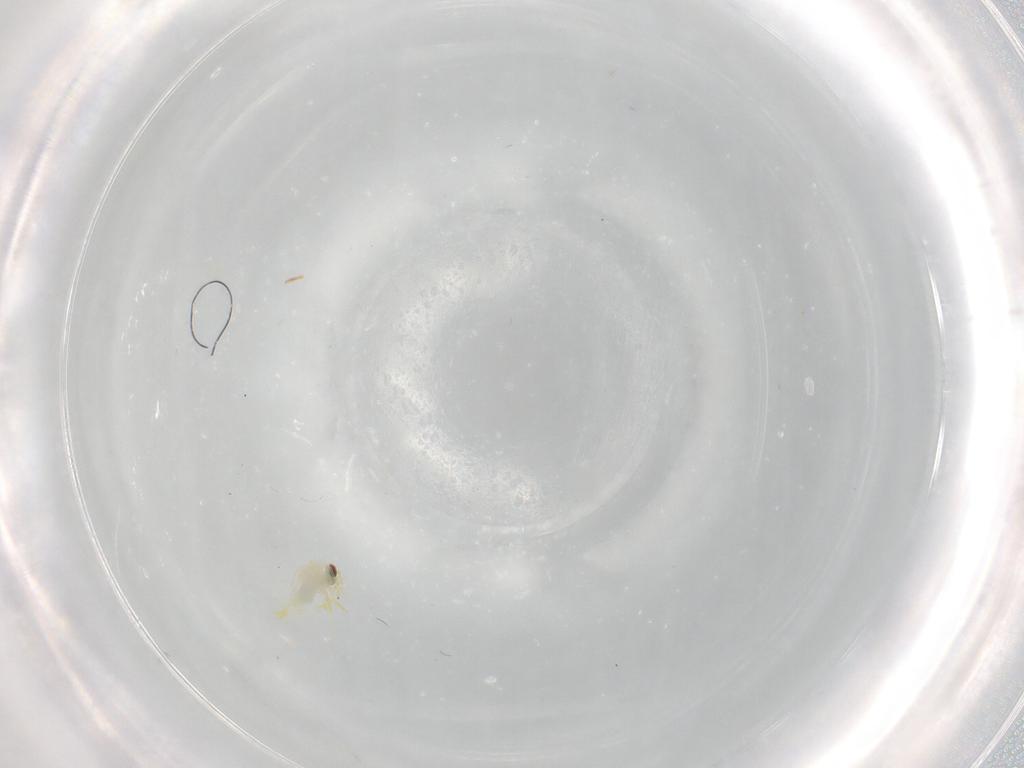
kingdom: Animalia
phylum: Arthropoda
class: Insecta
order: Hemiptera
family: Aleyrodidae
